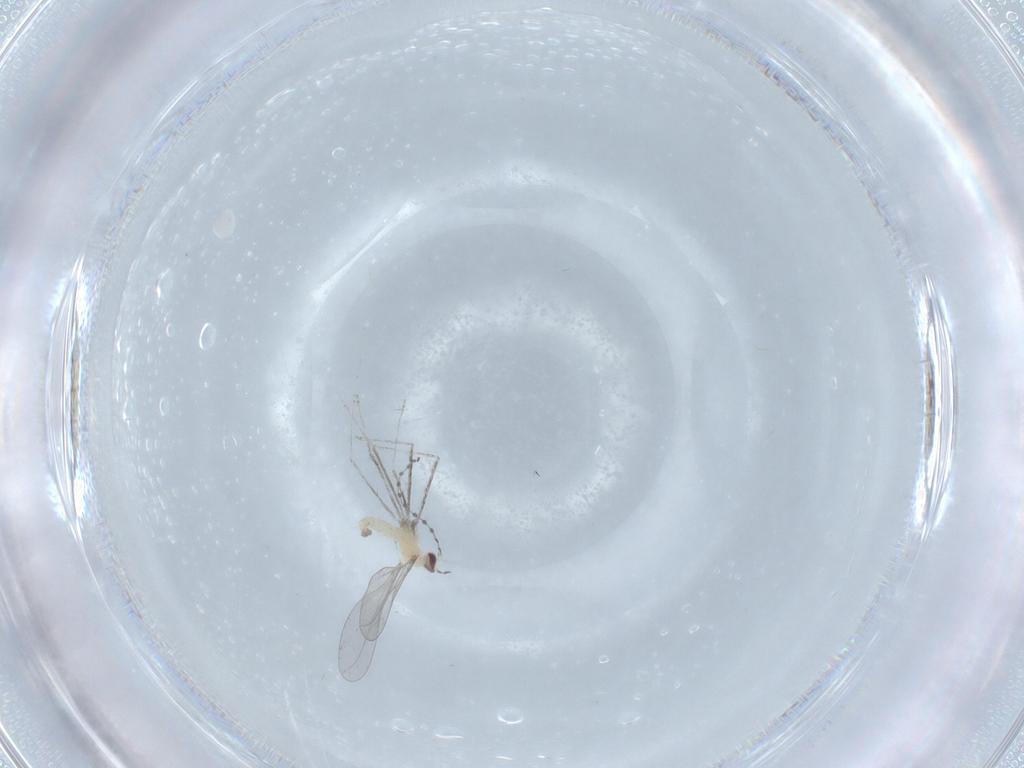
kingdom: Animalia
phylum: Arthropoda
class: Insecta
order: Diptera
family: Cecidomyiidae
